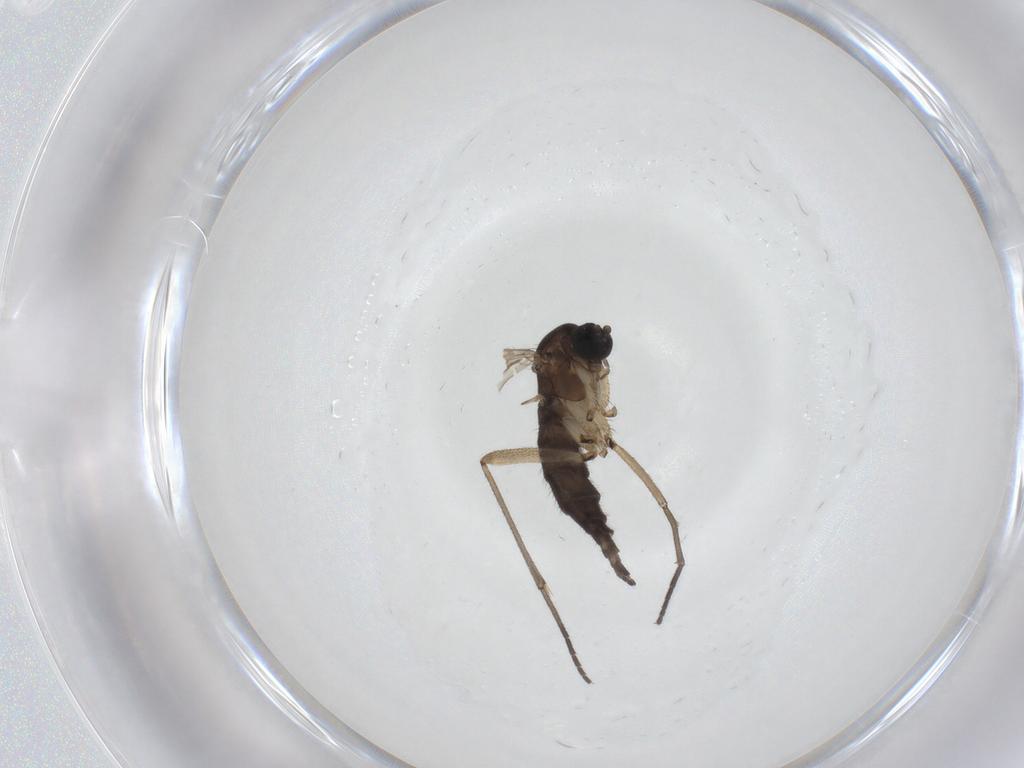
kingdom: Animalia
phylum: Arthropoda
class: Insecta
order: Diptera
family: Sciaridae
